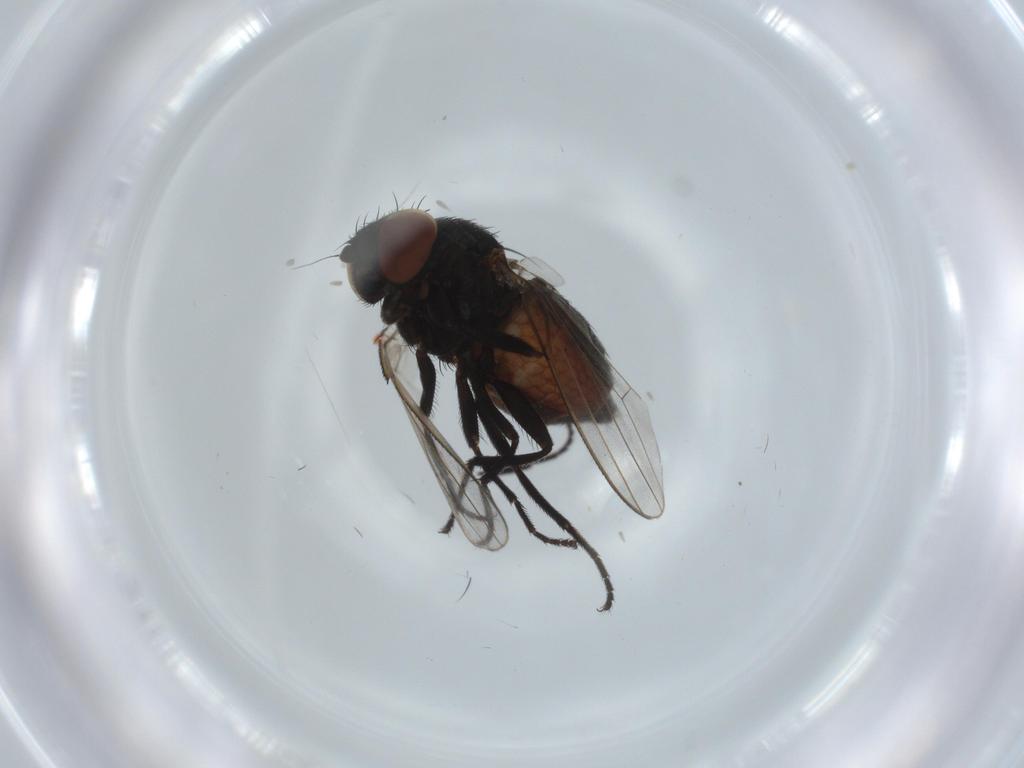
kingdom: Animalia
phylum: Arthropoda
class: Insecta
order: Diptera
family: Milichiidae
